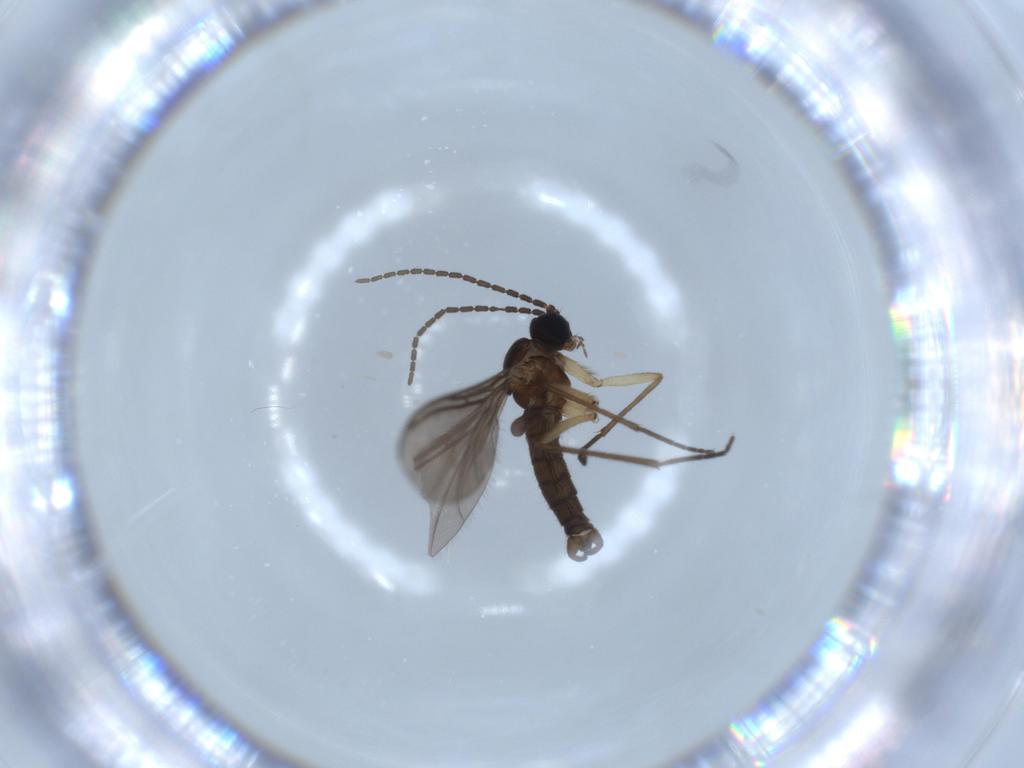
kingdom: Animalia
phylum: Arthropoda
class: Insecta
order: Diptera
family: Sciaridae
